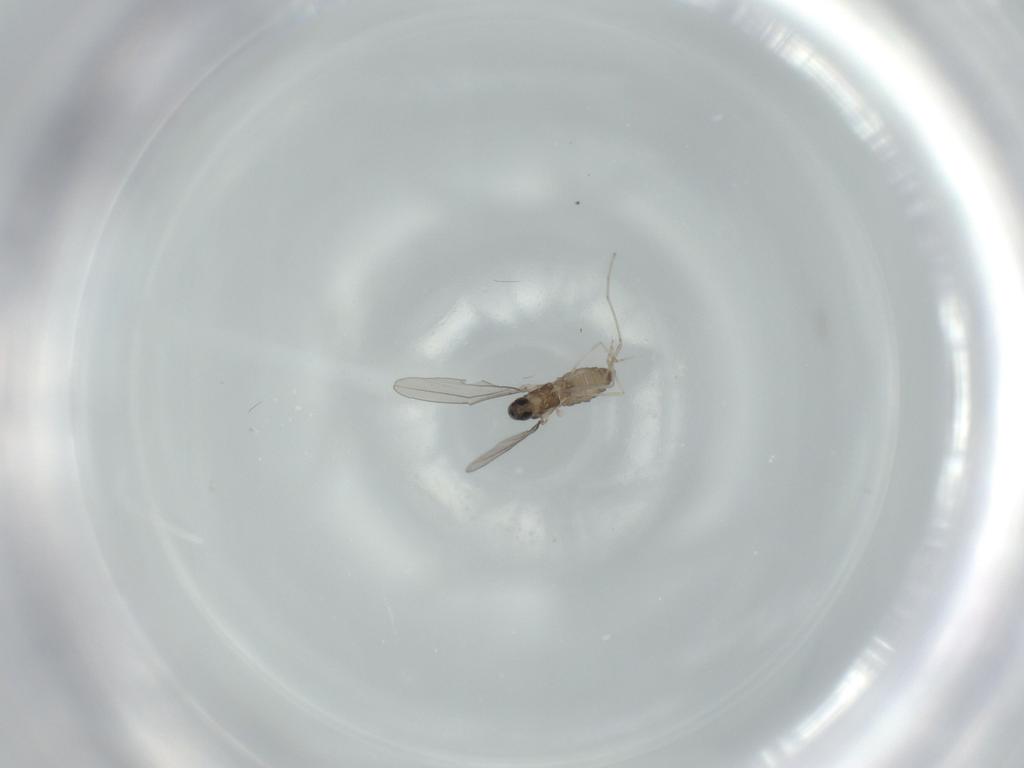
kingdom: Animalia
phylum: Arthropoda
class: Insecta
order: Diptera
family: Cecidomyiidae
